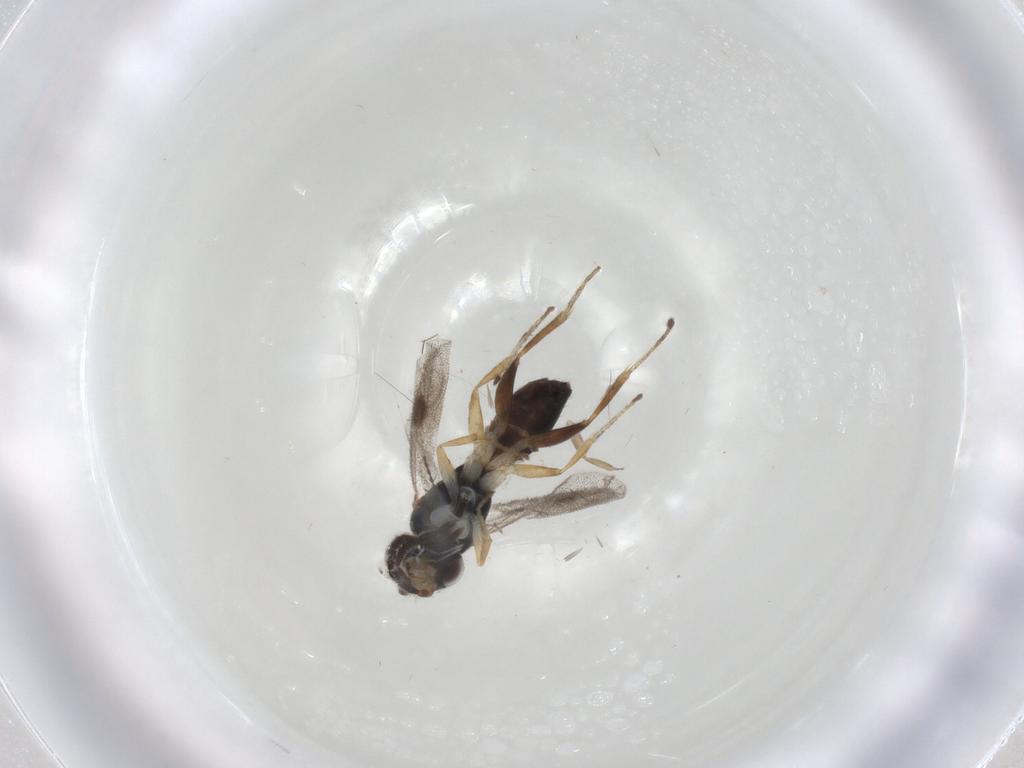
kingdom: Animalia
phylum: Arthropoda
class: Insecta
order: Hymenoptera
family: Dryinidae
